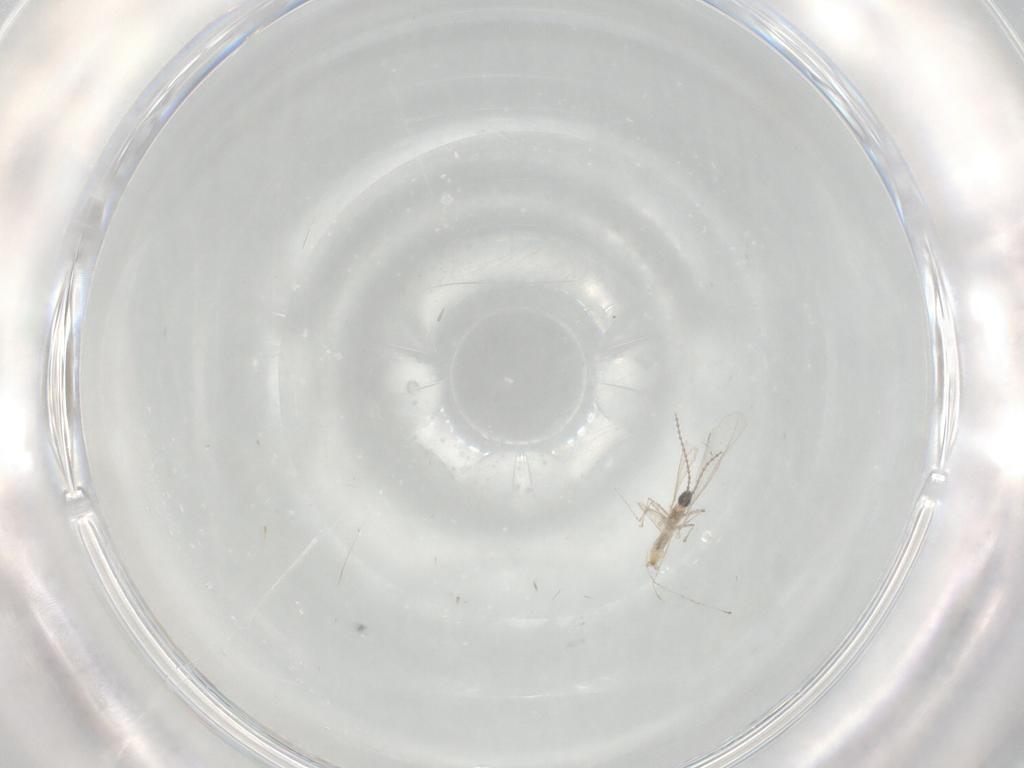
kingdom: Animalia
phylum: Arthropoda
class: Insecta
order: Diptera
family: Cecidomyiidae
